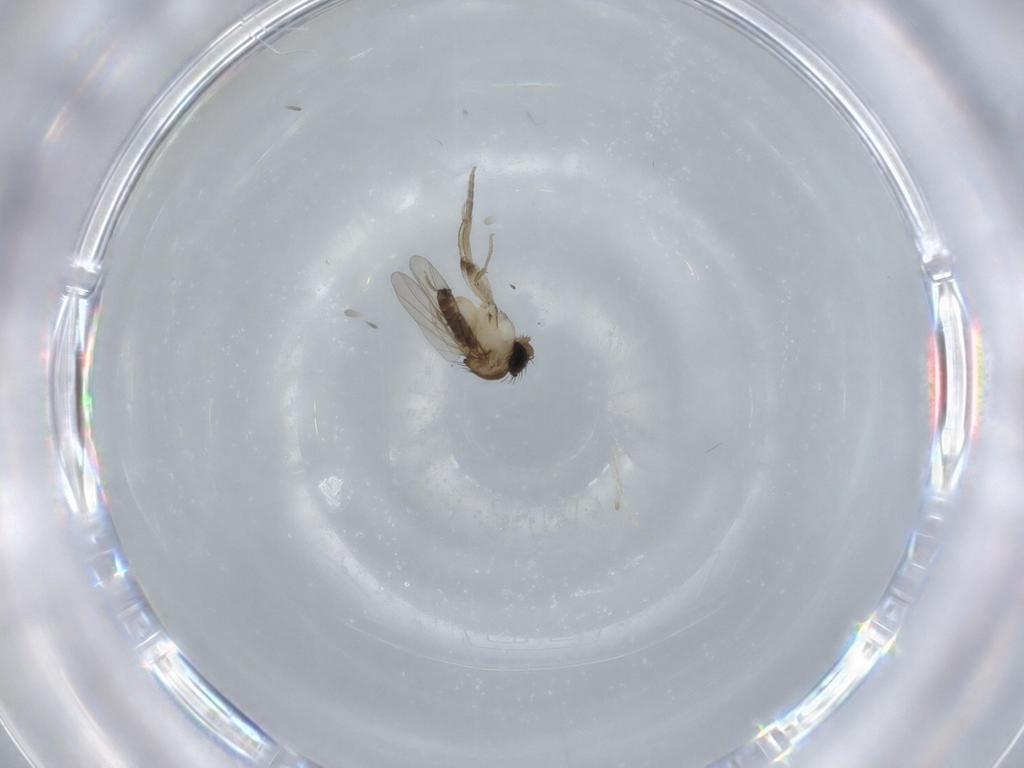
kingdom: Animalia
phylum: Arthropoda
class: Insecta
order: Diptera
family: Phoridae
